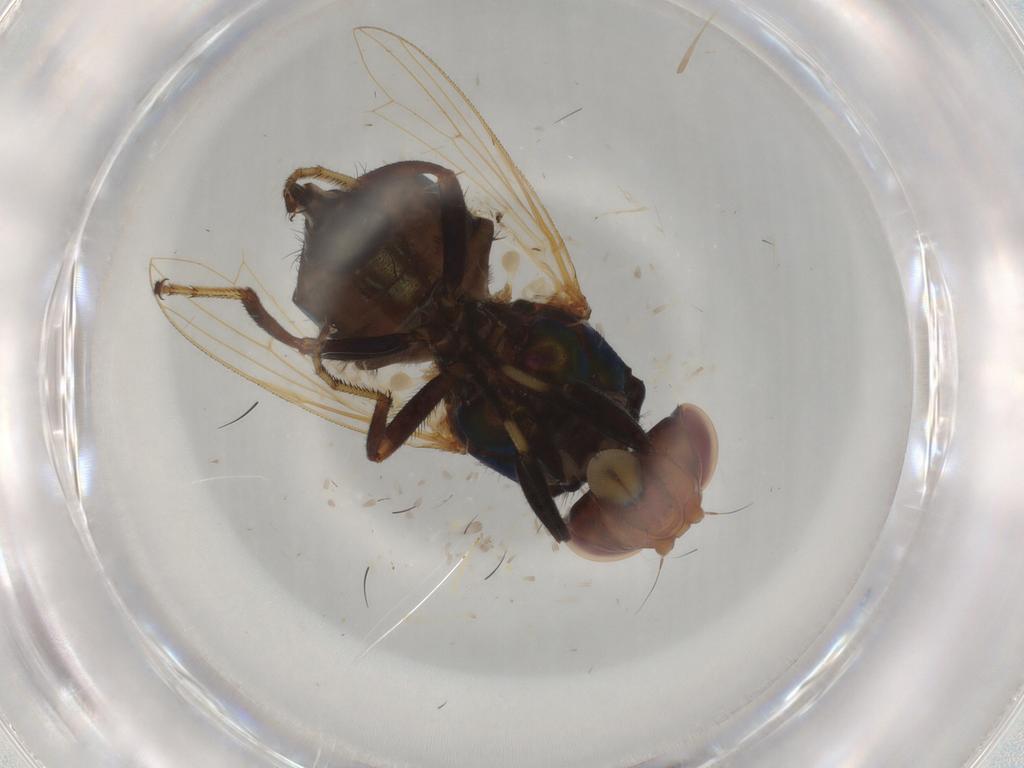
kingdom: Animalia
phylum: Arthropoda
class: Insecta
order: Diptera
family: Ulidiidae
